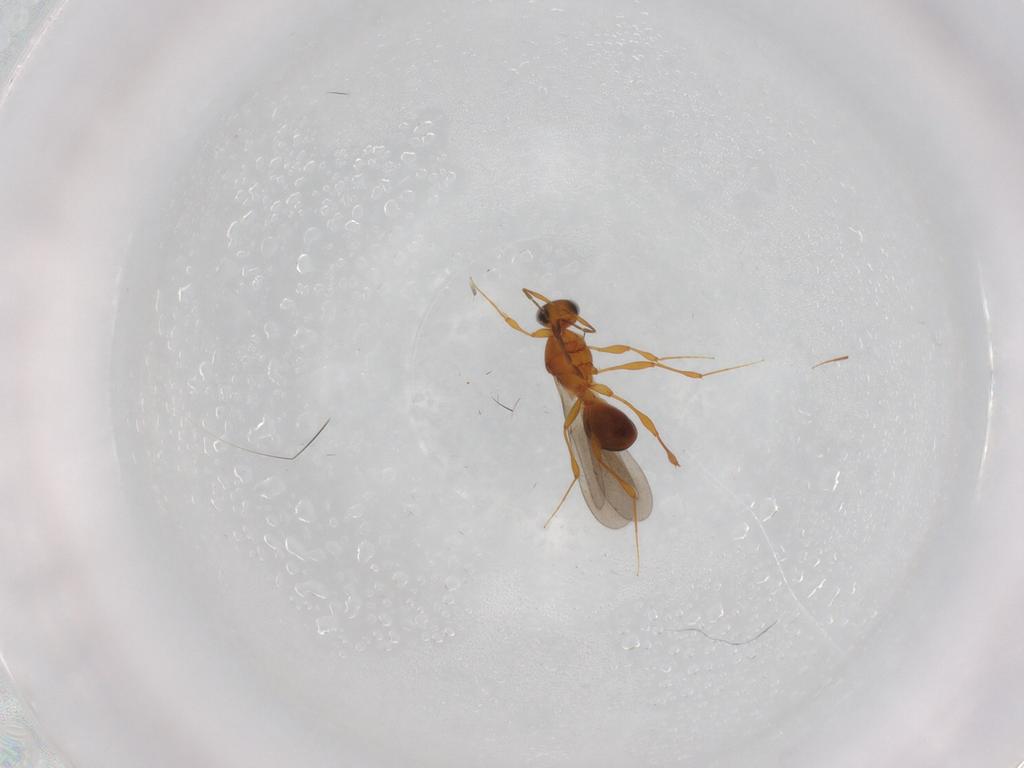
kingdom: Animalia
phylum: Arthropoda
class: Insecta
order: Hymenoptera
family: Platygastridae
